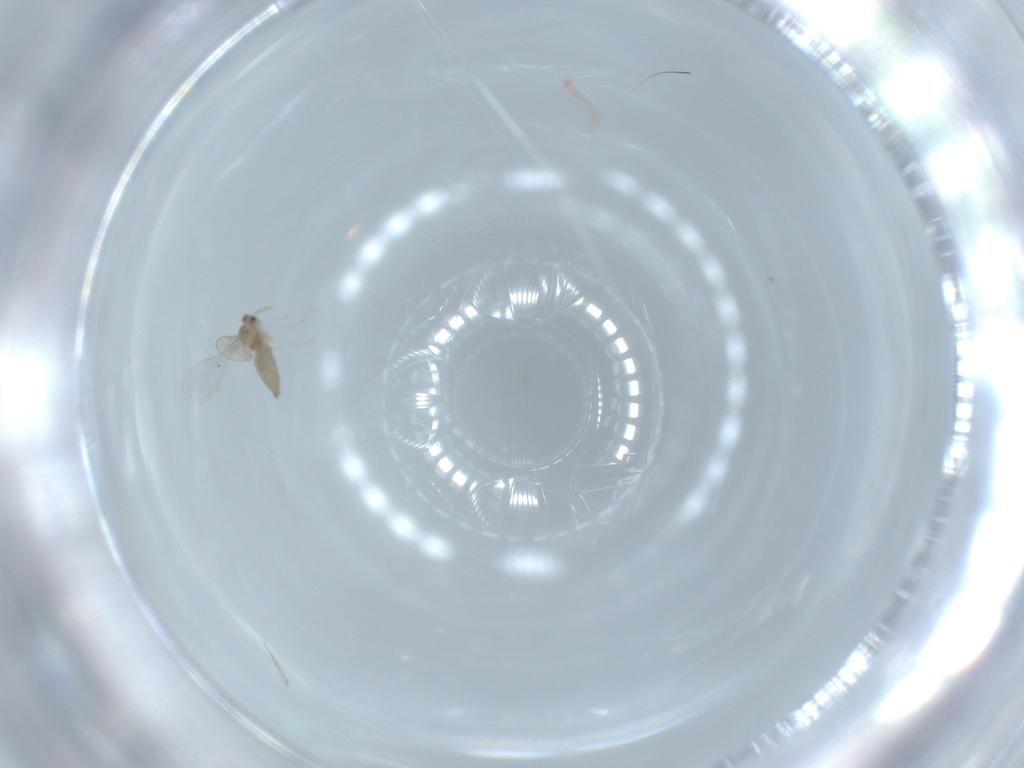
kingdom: Animalia
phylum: Arthropoda
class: Insecta
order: Diptera
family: Cecidomyiidae
